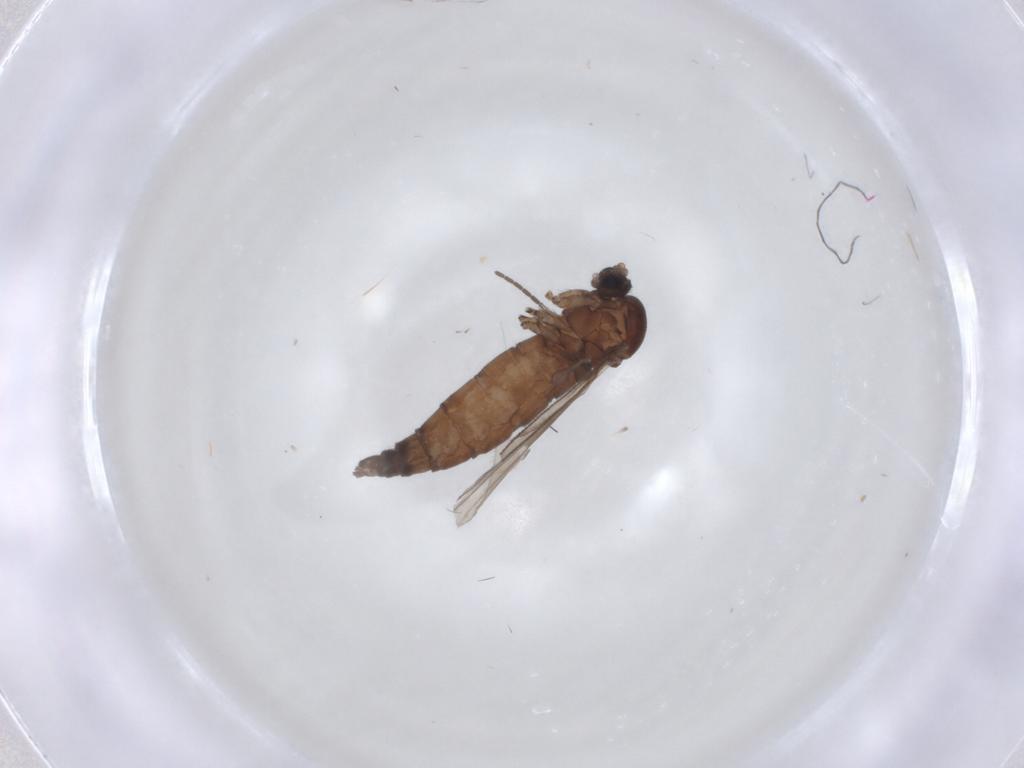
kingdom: Animalia
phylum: Arthropoda
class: Insecta
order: Diptera
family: Sciaridae
